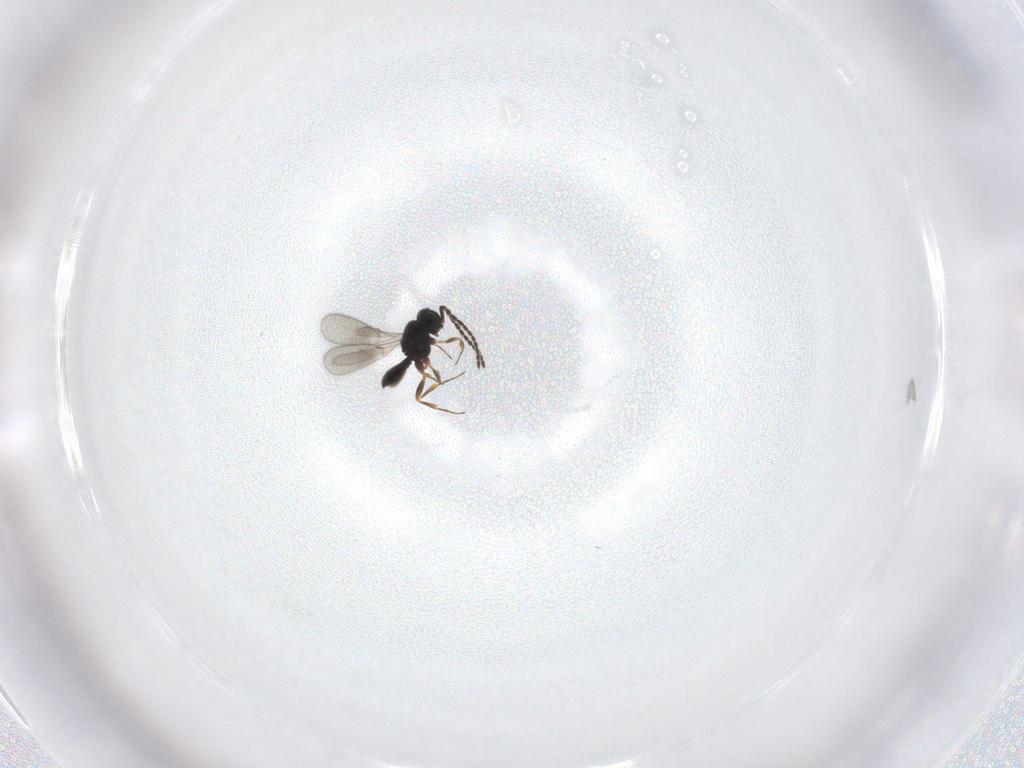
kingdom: Animalia
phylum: Arthropoda
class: Insecta
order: Hymenoptera
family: Scelionidae
